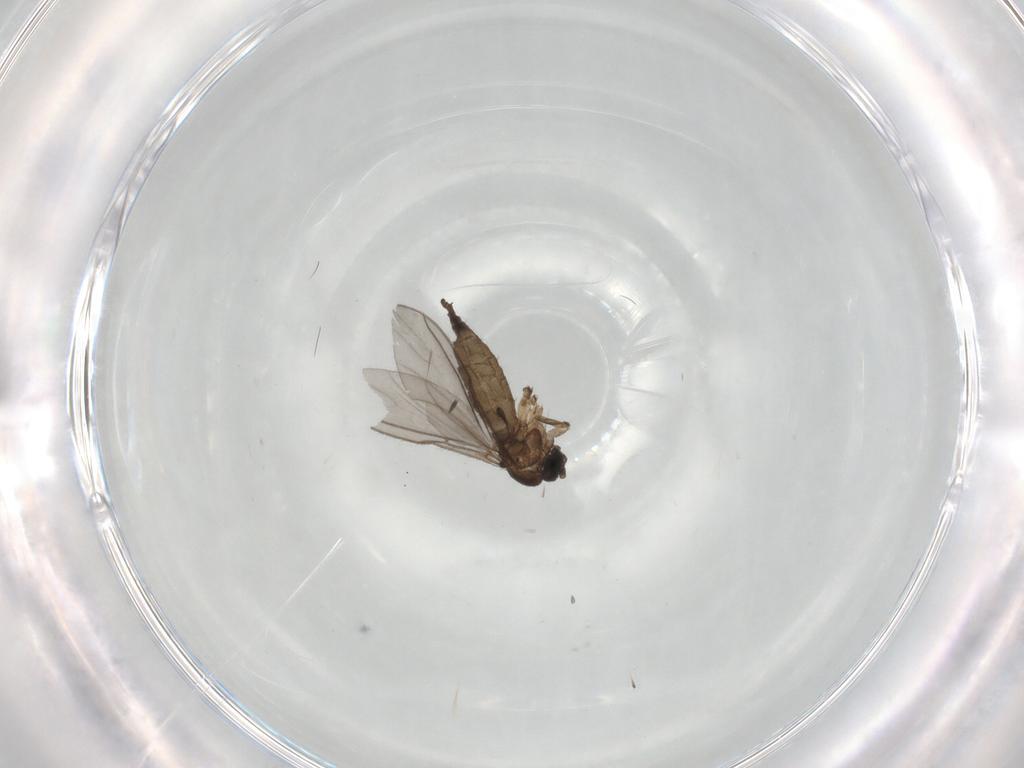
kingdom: Animalia
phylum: Arthropoda
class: Insecta
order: Diptera
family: Sciaridae
